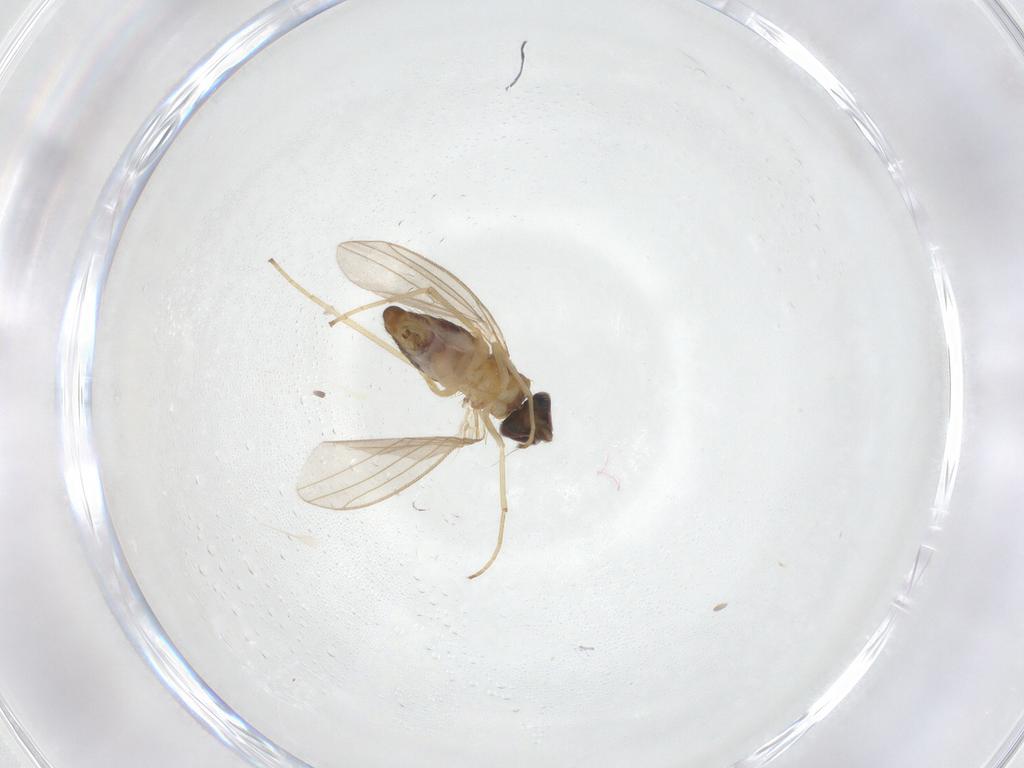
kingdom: Animalia
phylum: Arthropoda
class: Insecta
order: Diptera
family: Dolichopodidae
